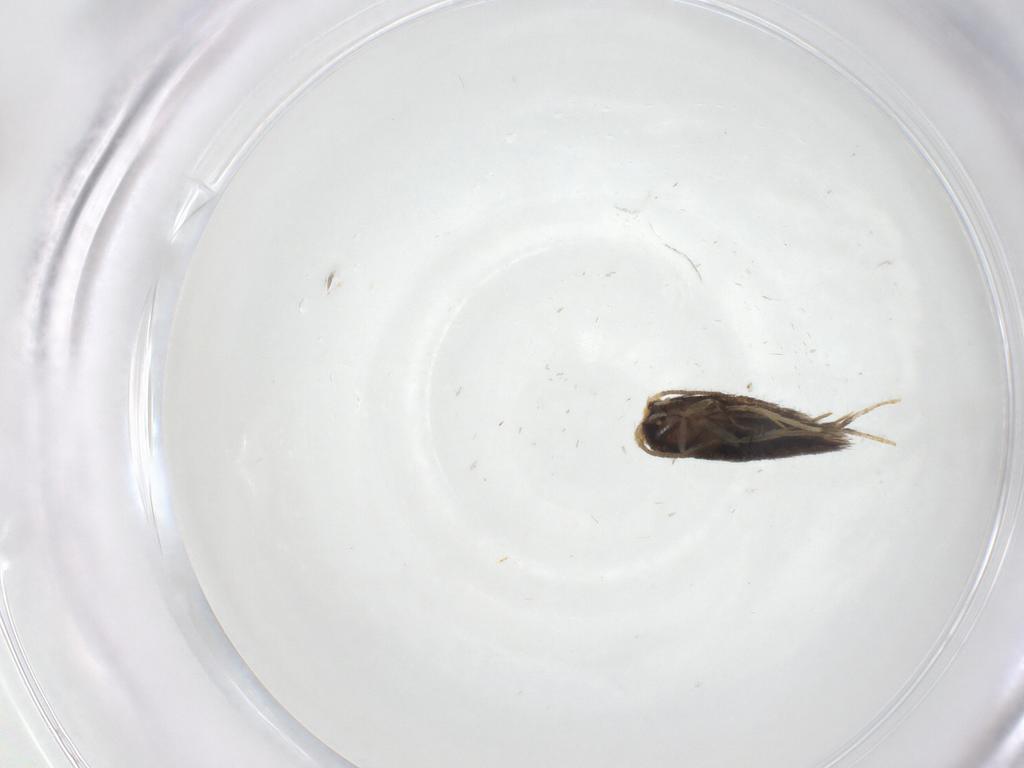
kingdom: Animalia
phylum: Arthropoda
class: Insecta
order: Lepidoptera
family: Nepticulidae
